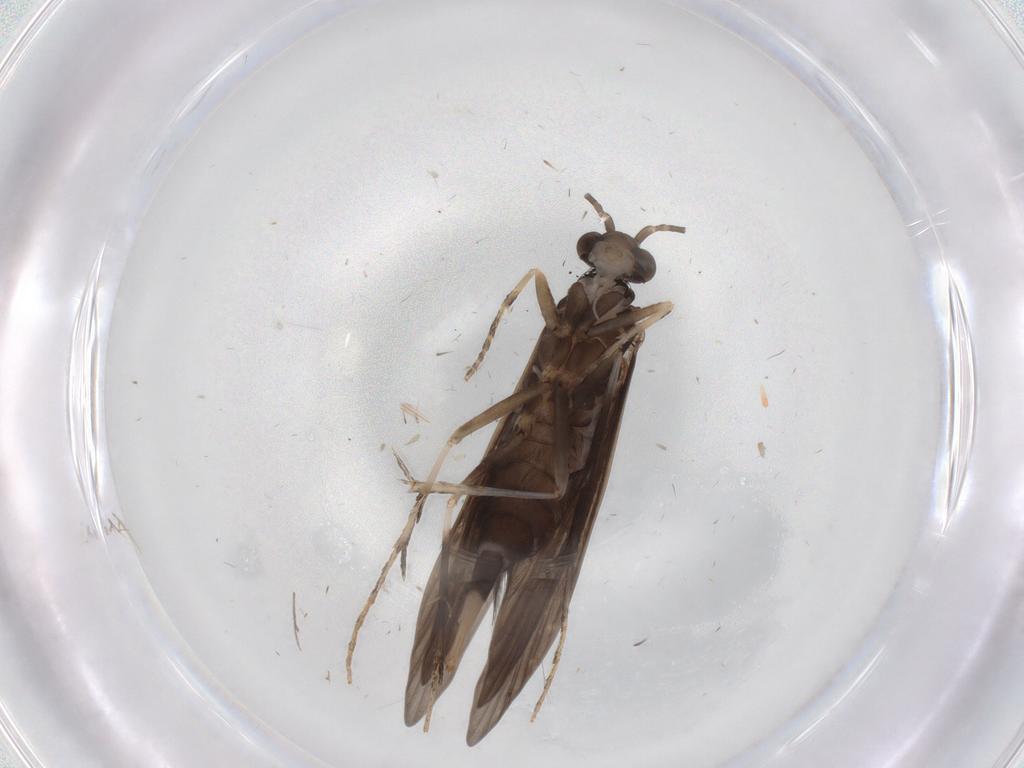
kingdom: Animalia
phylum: Arthropoda
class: Insecta
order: Trichoptera
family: Xiphocentronidae
